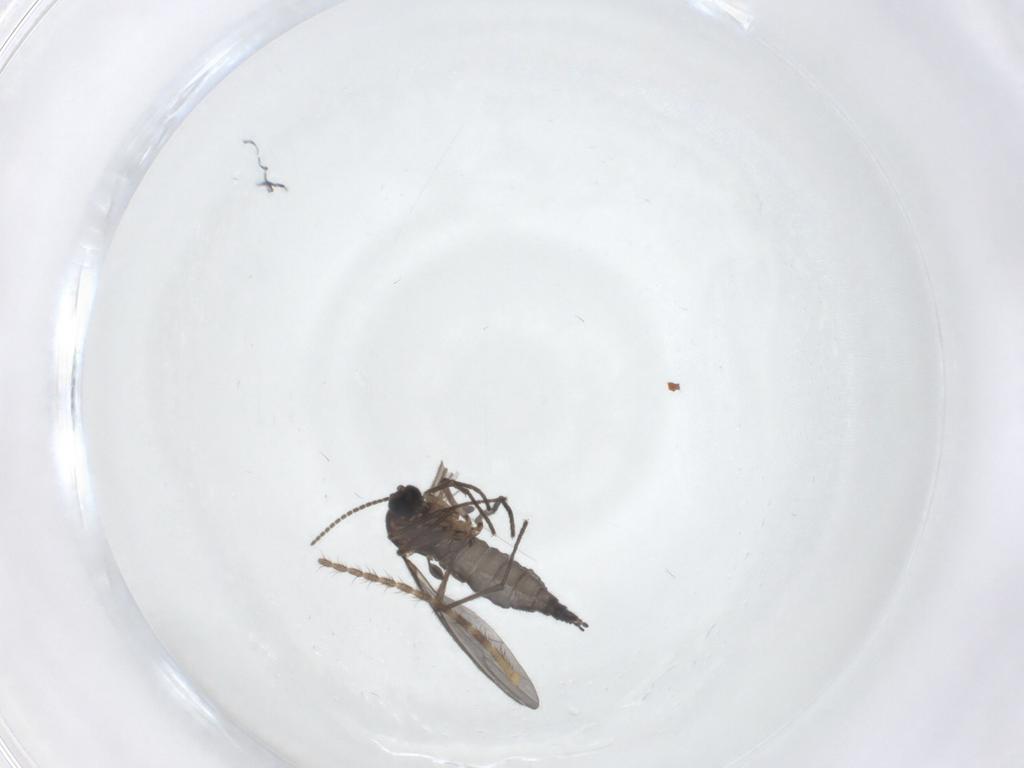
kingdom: Animalia
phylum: Arthropoda
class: Insecta
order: Diptera
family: Sciaridae
